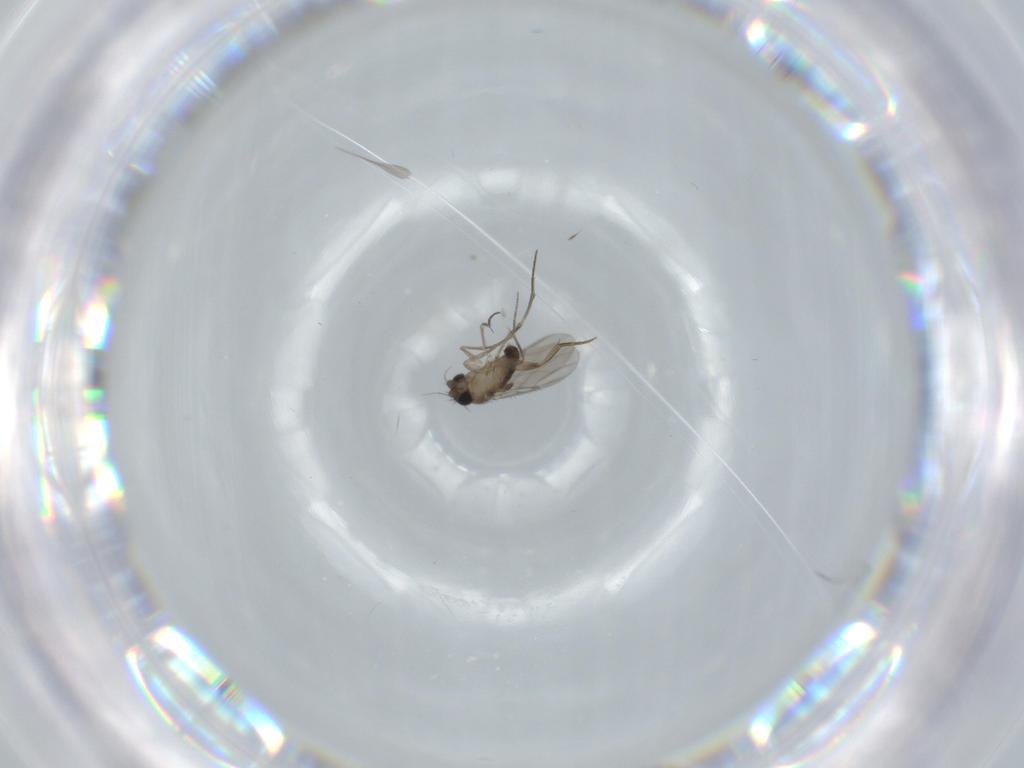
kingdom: Animalia
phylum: Arthropoda
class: Insecta
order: Diptera
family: Phoridae
